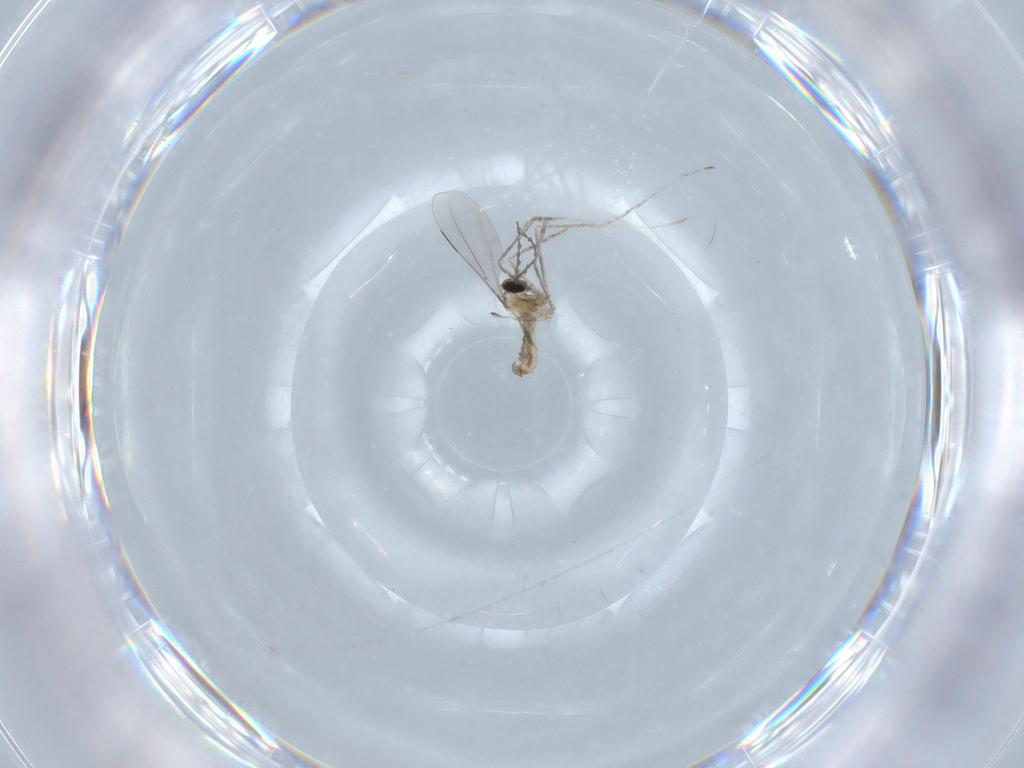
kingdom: Animalia
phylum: Arthropoda
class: Insecta
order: Diptera
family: Cecidomyiidae
